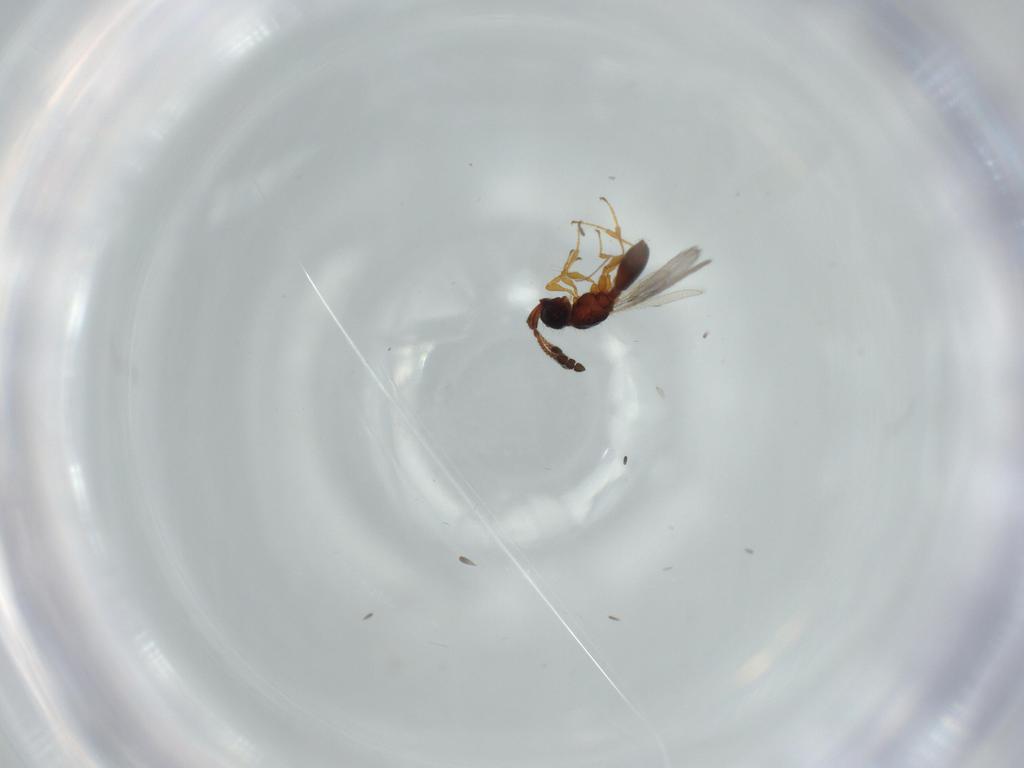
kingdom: Animalia
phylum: Arthropoda
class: Insecta
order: Hymenoptera
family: Diapriidae
